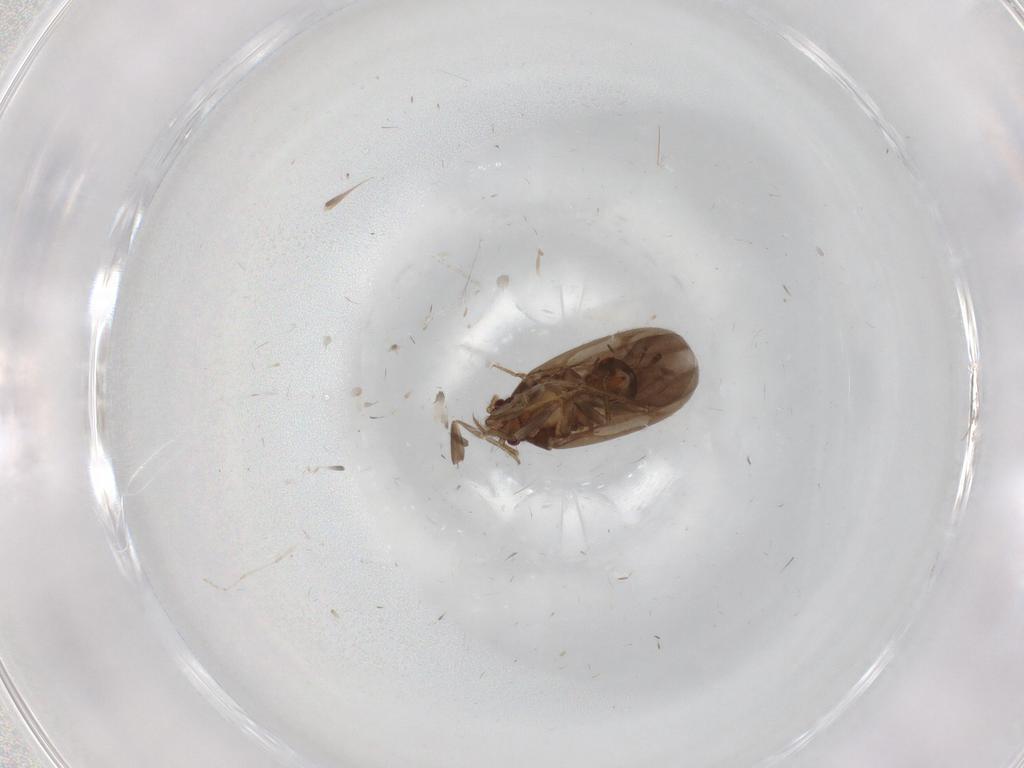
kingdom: Animalia
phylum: Arthropoda
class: Insecta
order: Hemiptera
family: Ceratocombidae
